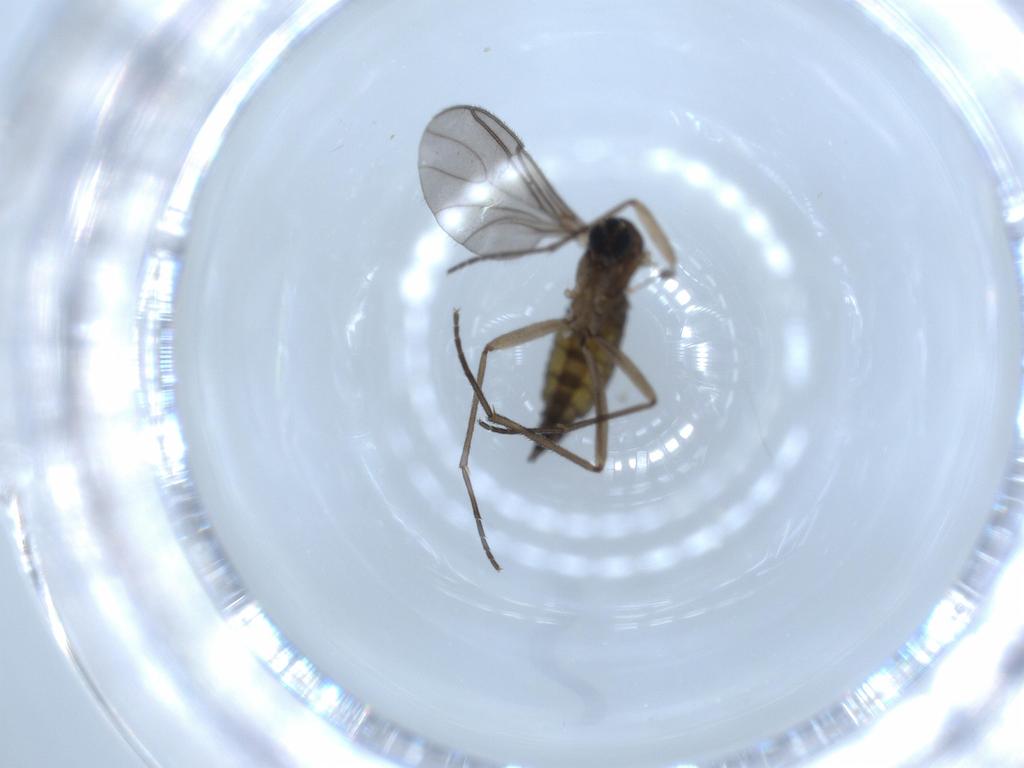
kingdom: Animalia
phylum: Arthropoda
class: Insecta
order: Diptera
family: Sciaridae
